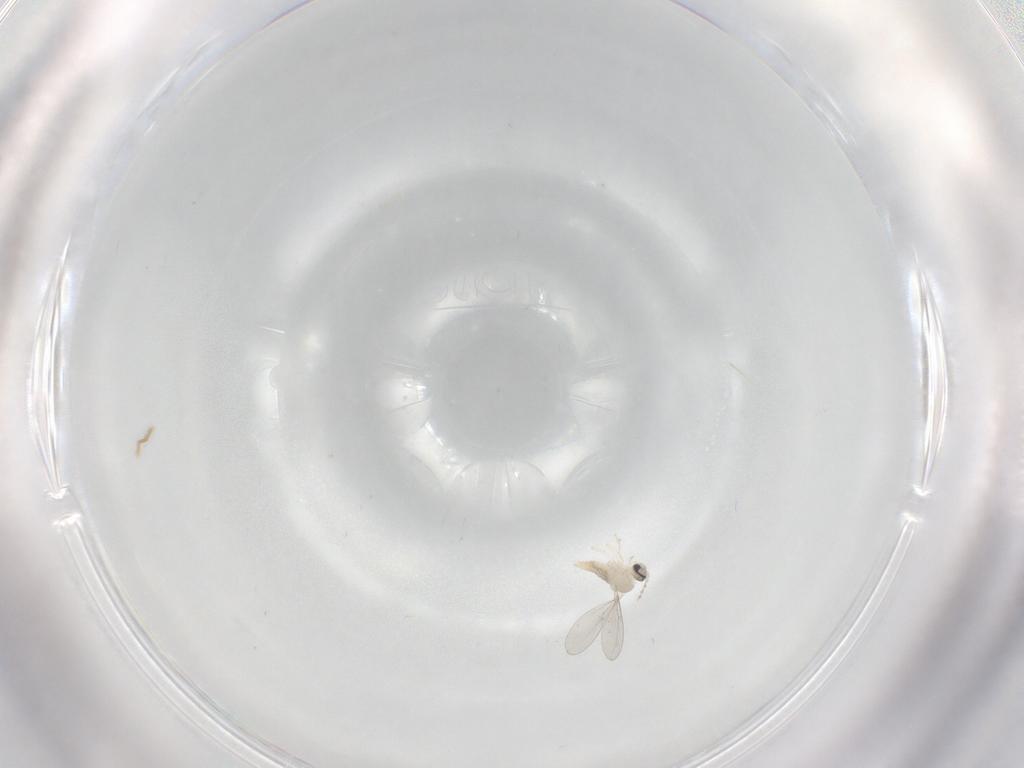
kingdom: Animalia
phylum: Arthropoda
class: Insecta
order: Diptera
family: Cecidomyiidae
